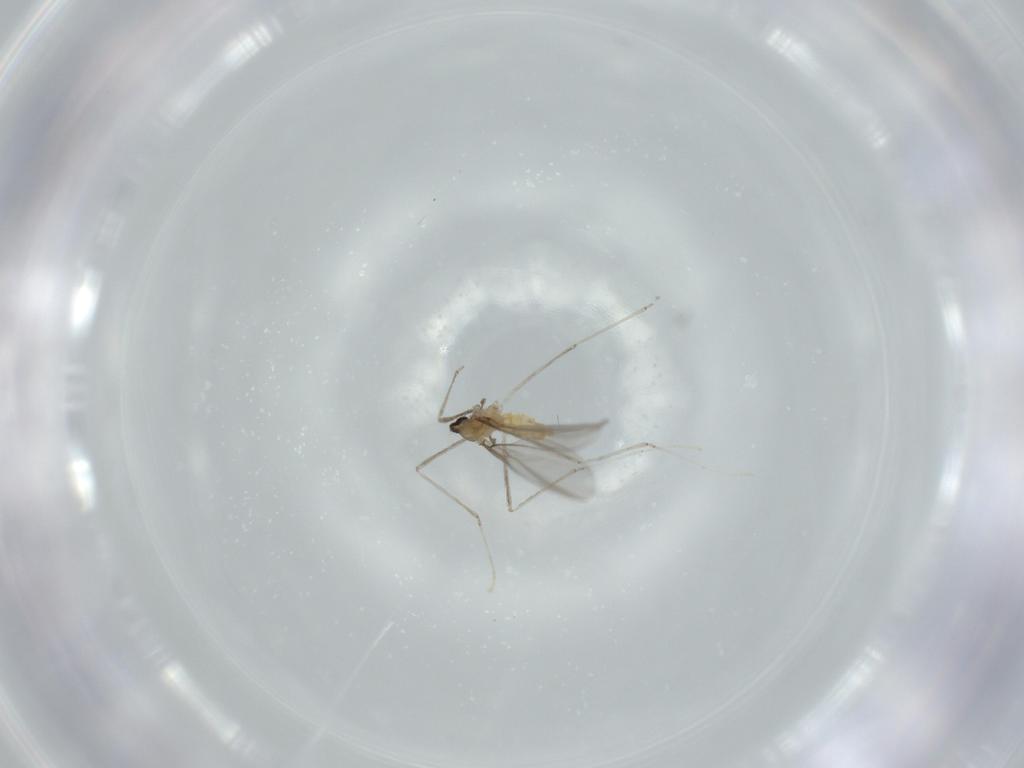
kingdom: Animalia
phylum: Arthropoda
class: Insecta
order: Diptera
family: Cecidomyiidae
